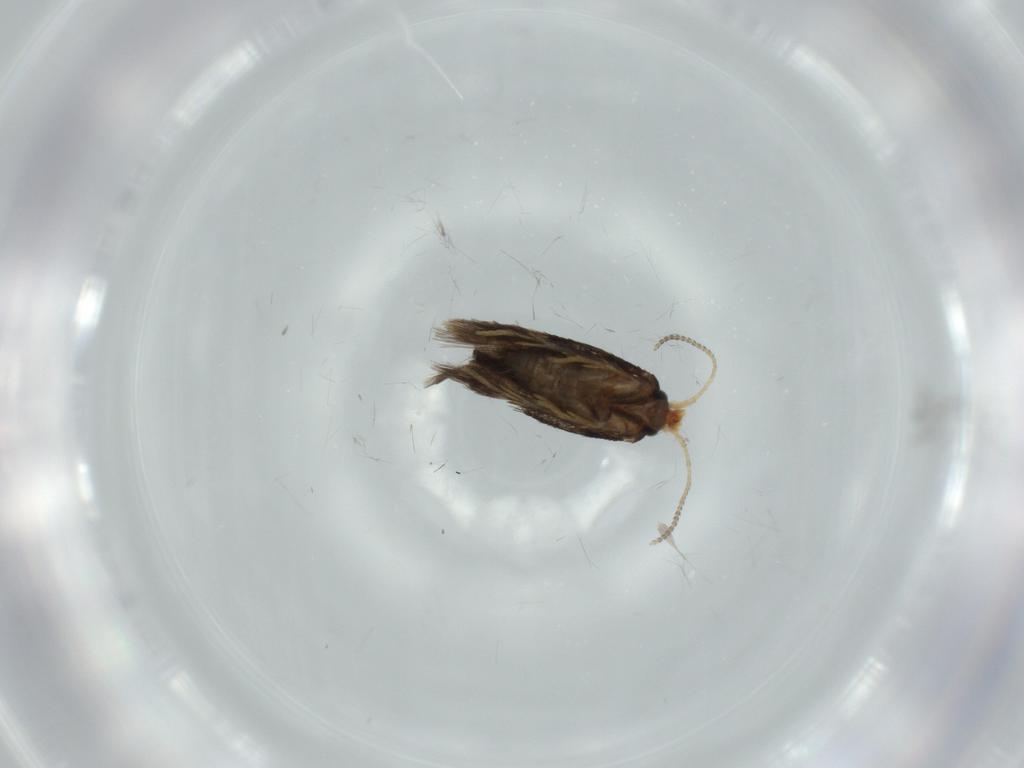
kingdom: Animalia
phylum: Arthropoda
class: Insecta
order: Lepidoptera
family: Nepticulidae
